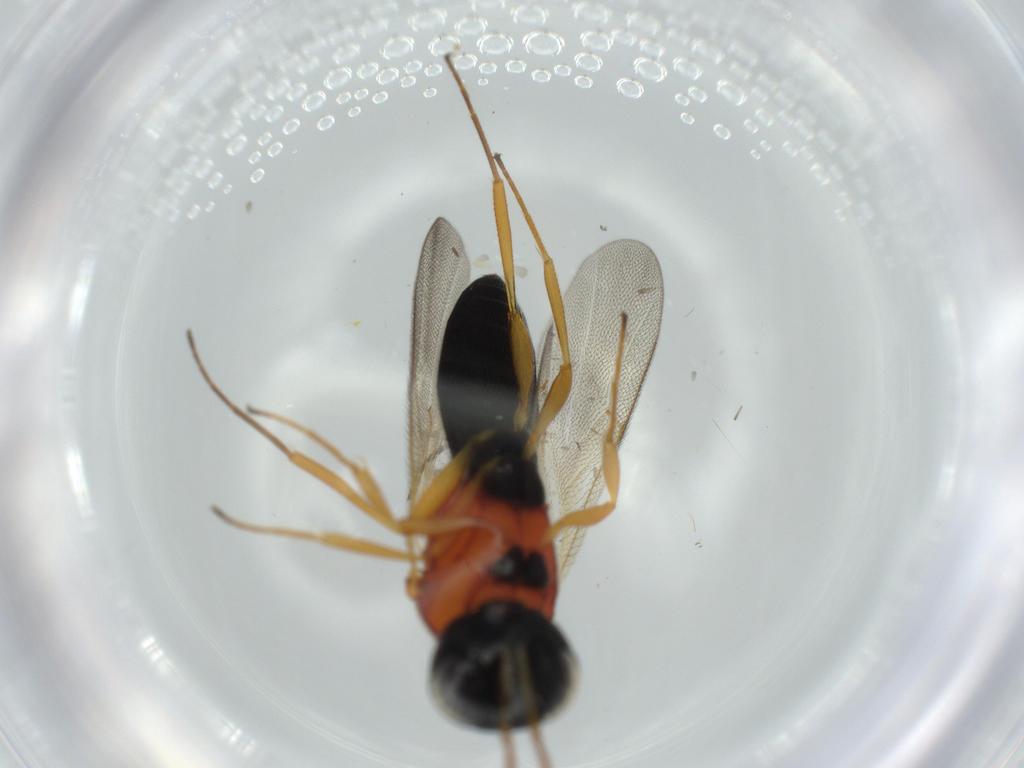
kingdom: Animalia
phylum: Arthropoda
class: Insecta
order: Hymenoptera
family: Scelionidae
